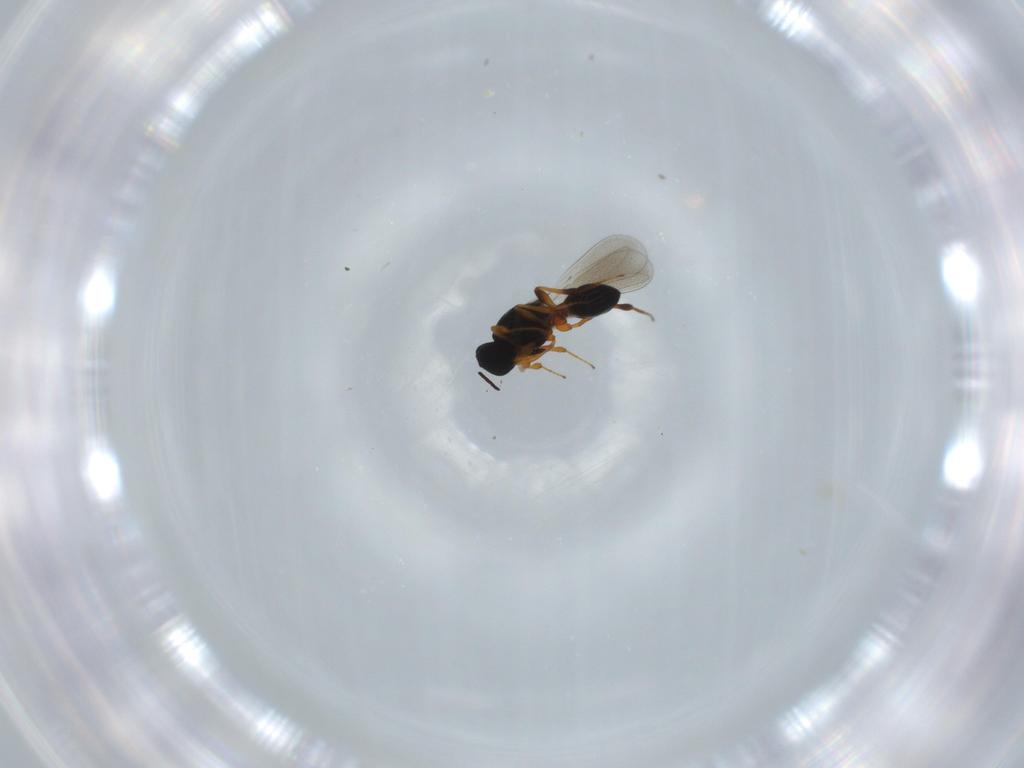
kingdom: Animalia
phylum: Arthropoda
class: Insecta
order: Hymenoptera
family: Platygastridae
